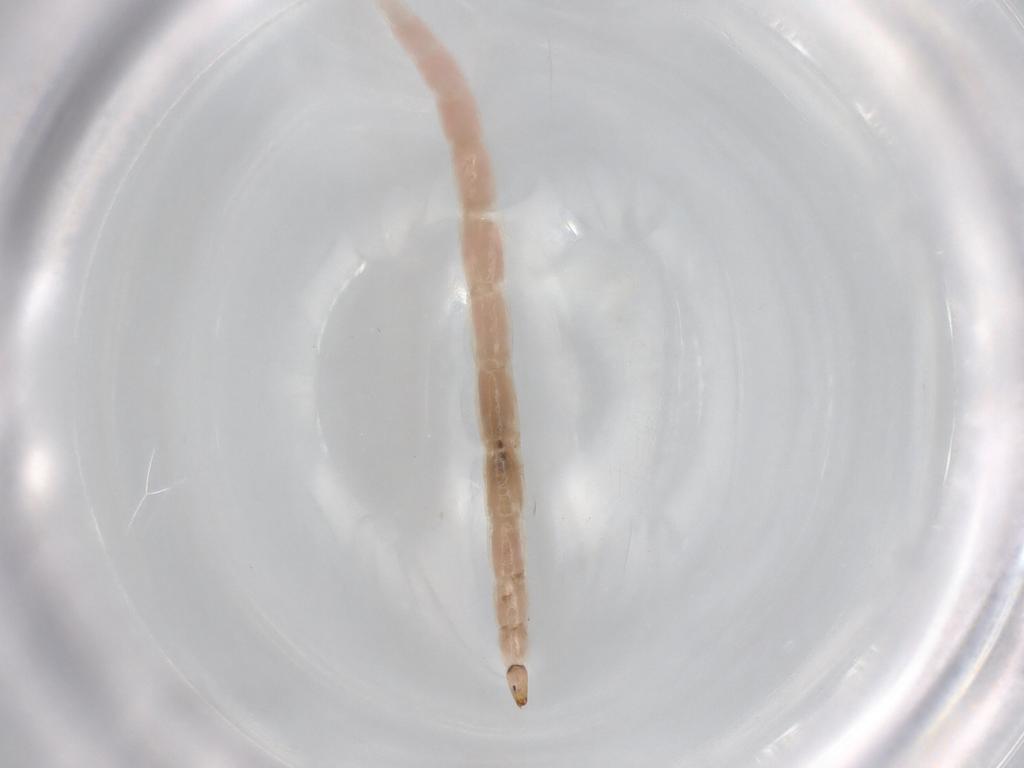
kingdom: Animalia
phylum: Arthropoda
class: Insecta
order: Diptera
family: Ceratopogonidae
